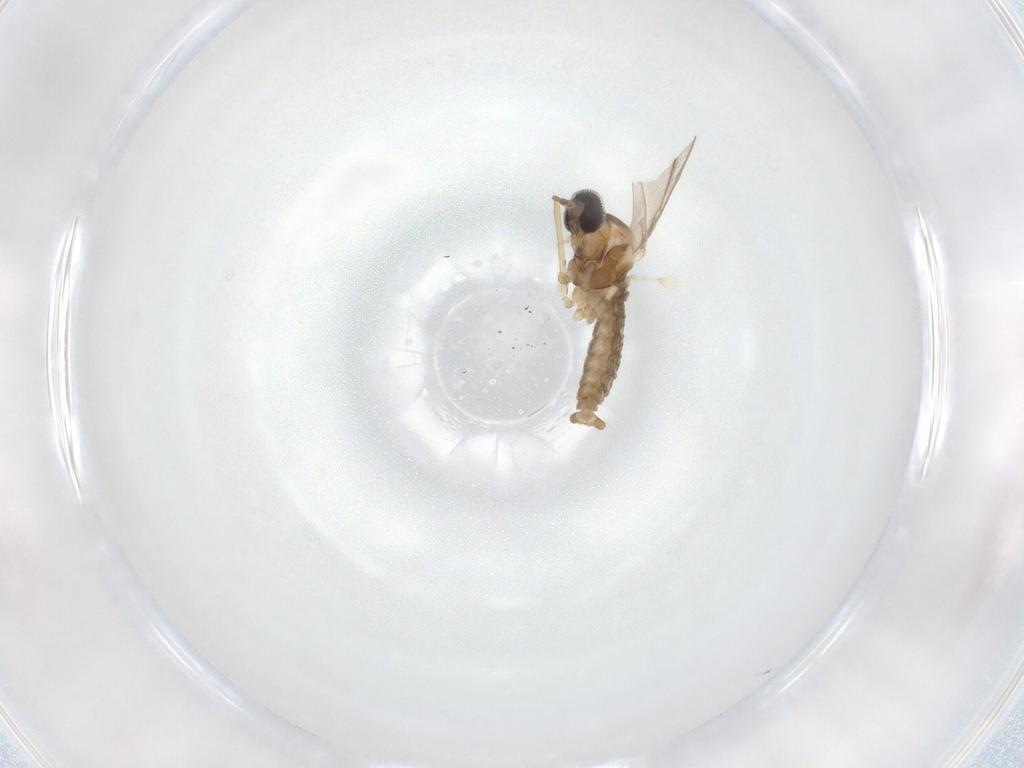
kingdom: Animalia
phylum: Arthropoda
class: Insecta
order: Diptera
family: Cecidomyiidae
